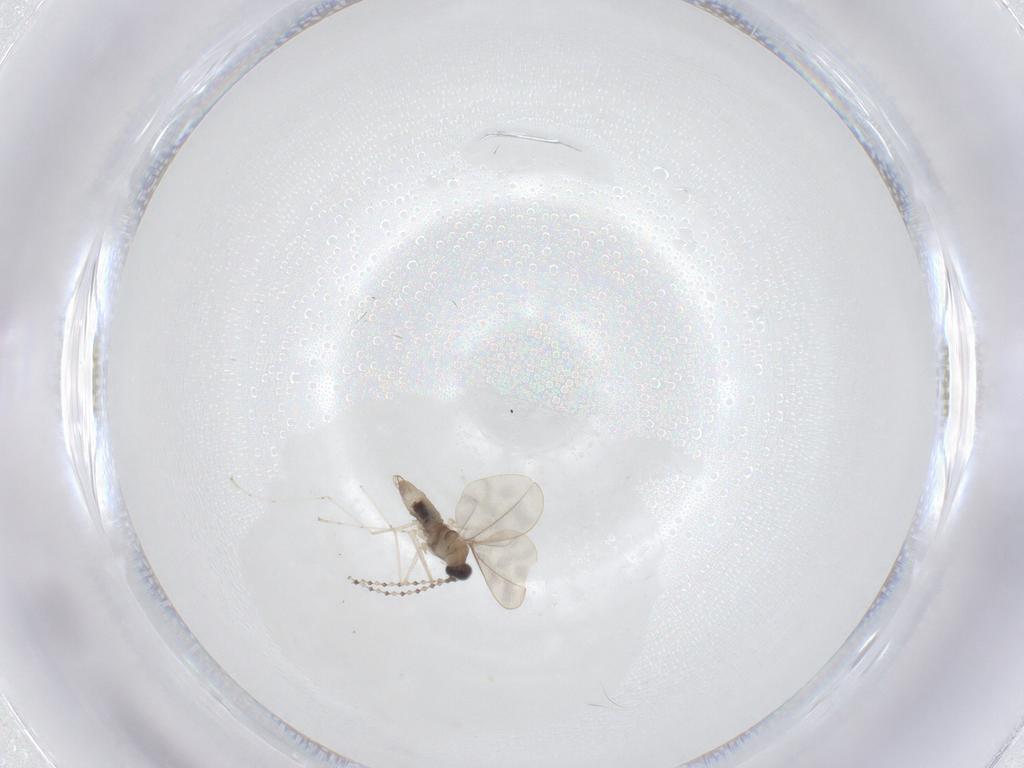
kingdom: Animalia
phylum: Arthropoda
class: Insecta
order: Diptera
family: Cecidomyiidae
